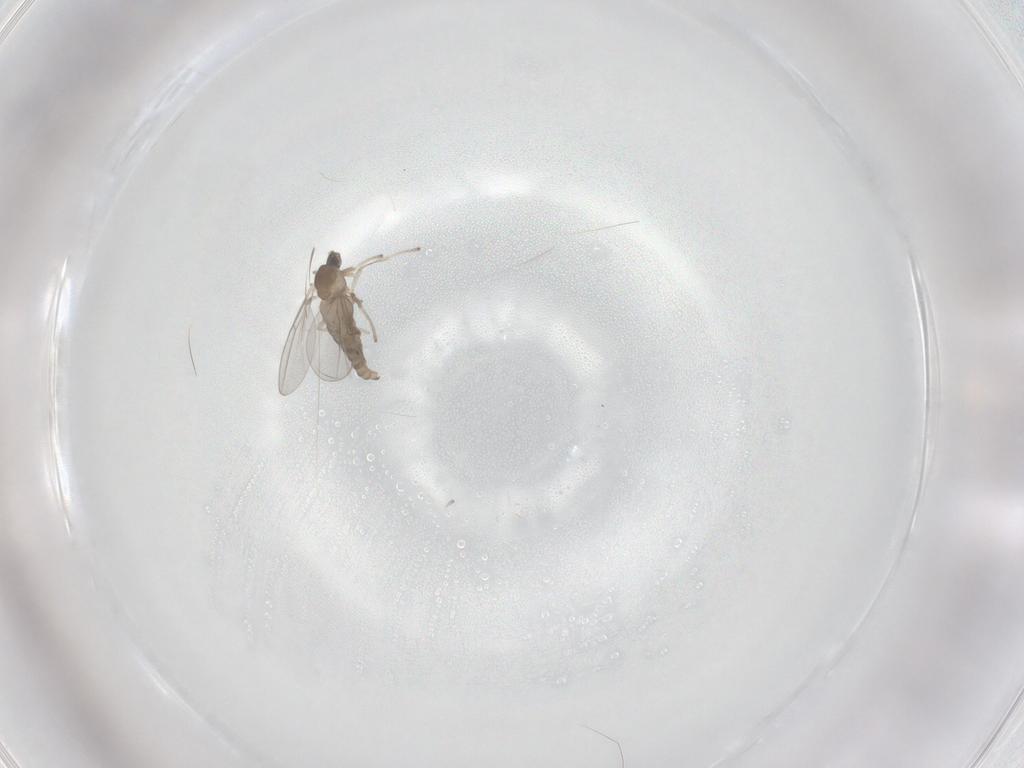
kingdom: Animalia
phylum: Arthropoda
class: Insecta
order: Diptera
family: Cecidomyiidae
